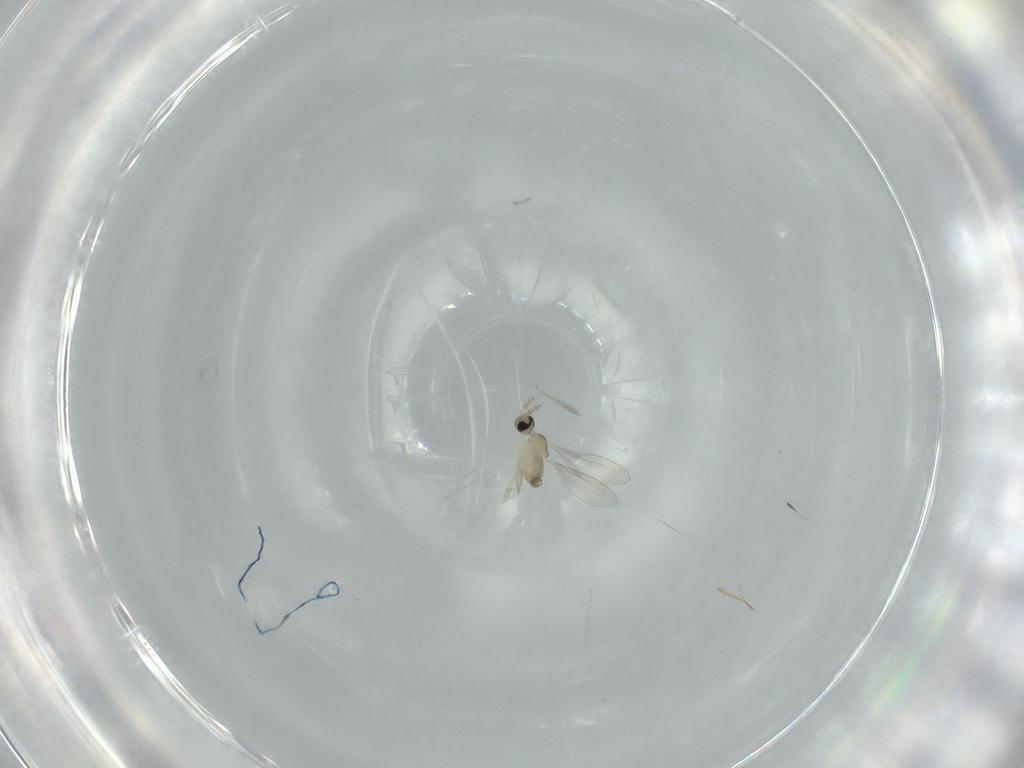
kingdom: Animalia
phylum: Arthropoda
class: Insecta
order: Diptera
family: Cecidomyiidae
